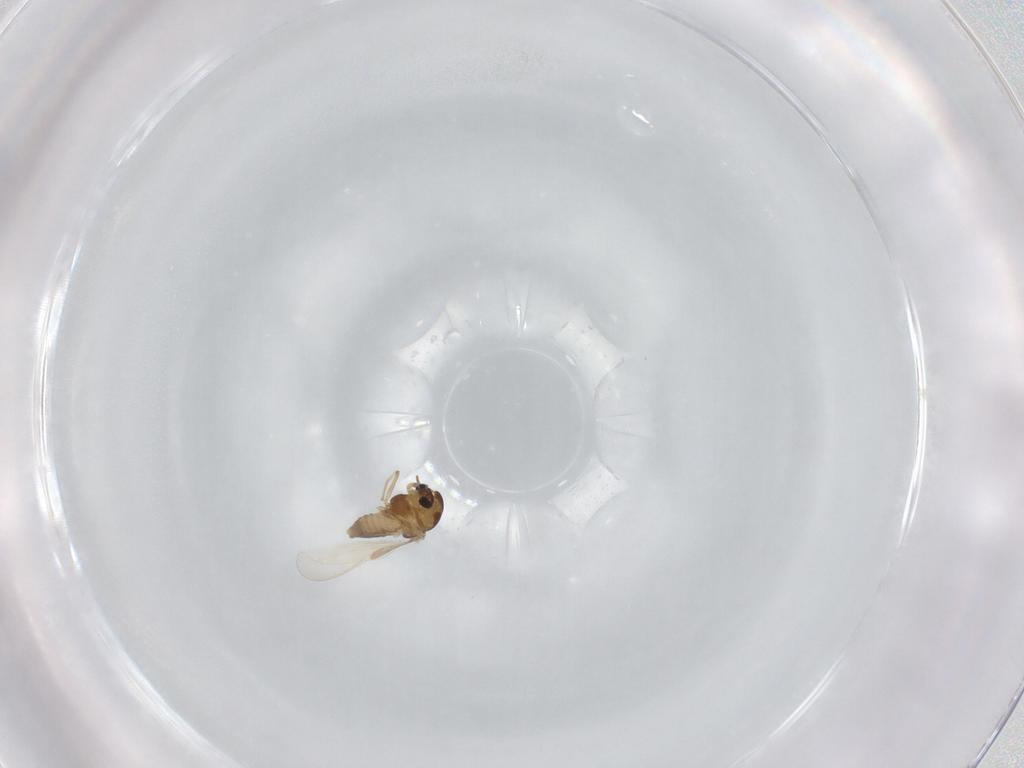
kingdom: Animalia
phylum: Arthropoda
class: Insecta
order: Diptera
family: Chironomidae
